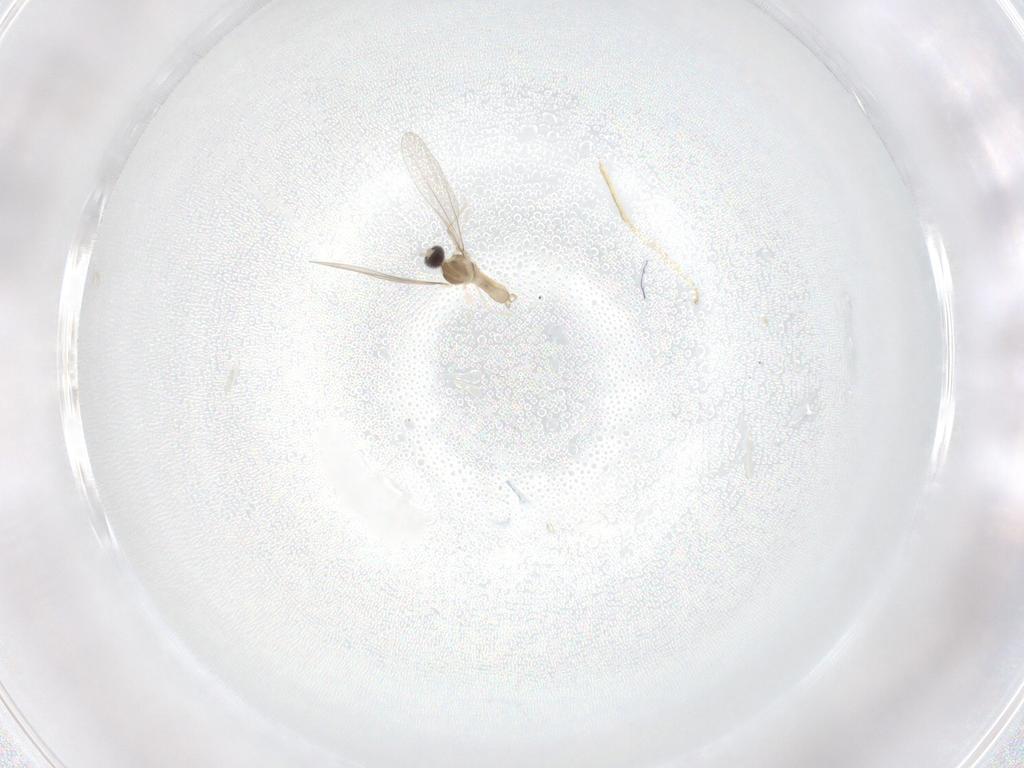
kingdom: Animalia
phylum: Arthropoda
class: Insecta
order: Diptera
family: Cecidomyiidae
